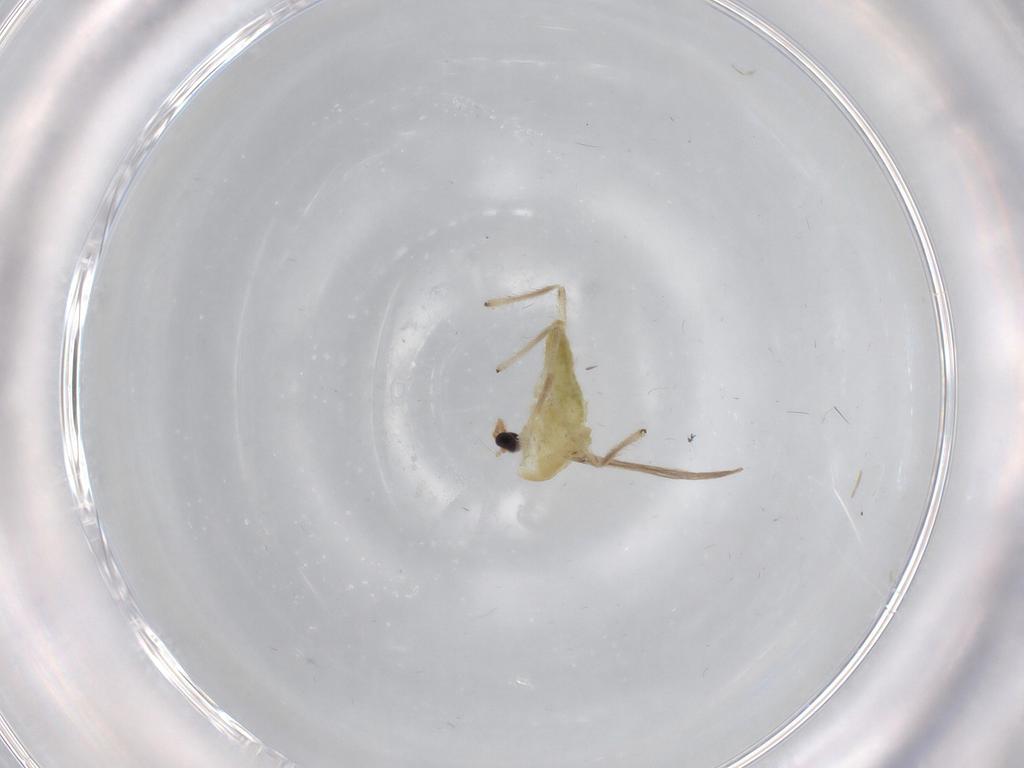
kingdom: Animalia
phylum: Arthropoda
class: Insecta
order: Diptera
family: Chironomidae
